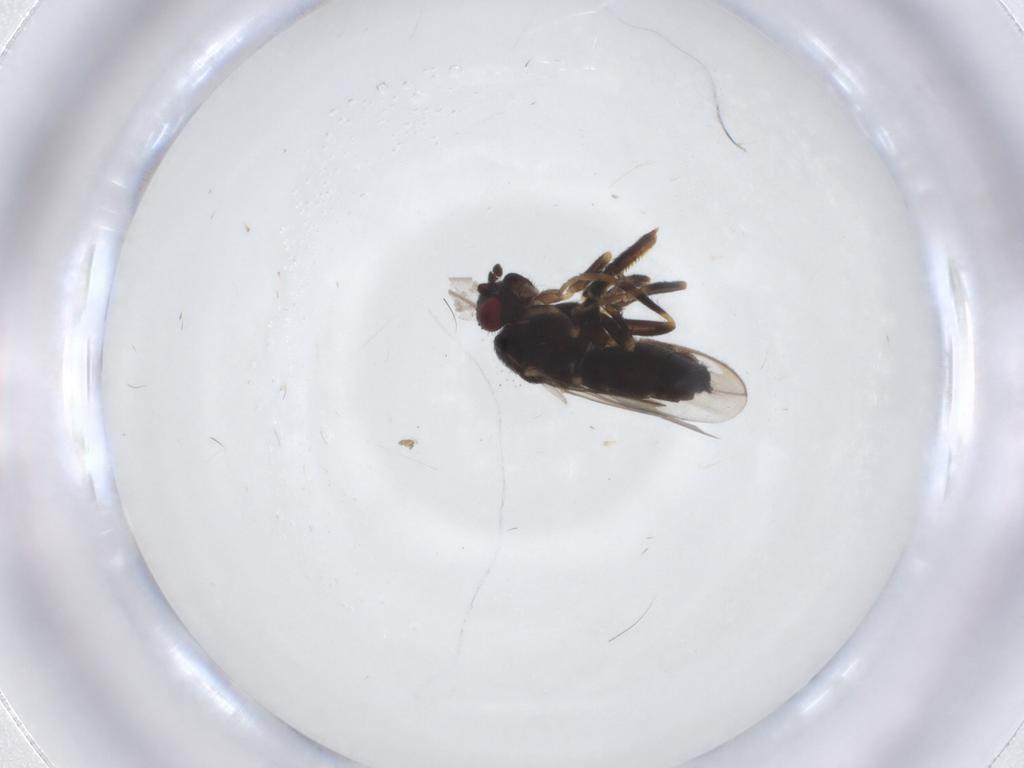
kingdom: Animalia
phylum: Arthropoda
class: Insecta
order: Diptera
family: Sphaeroceridae
